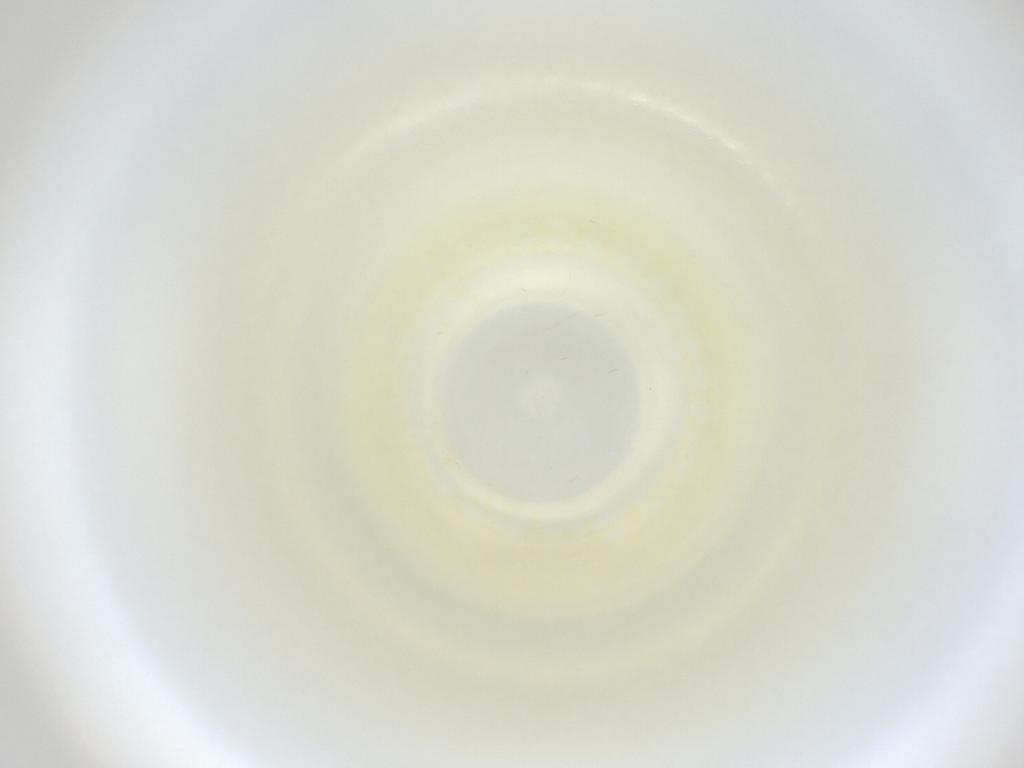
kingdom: Animalia
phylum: Arthropoda
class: Insecta
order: Diptera
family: Cecidomyiidae
